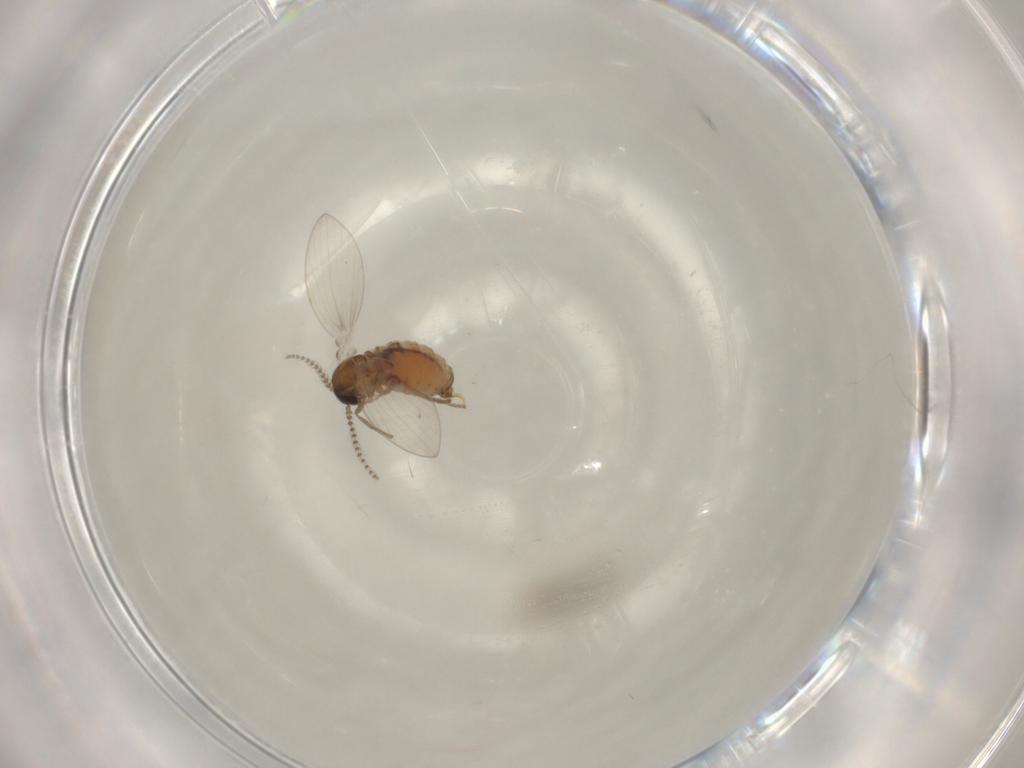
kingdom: Animalia
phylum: Arthropoda
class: Insecta
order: Diptera
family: Psychodidae
